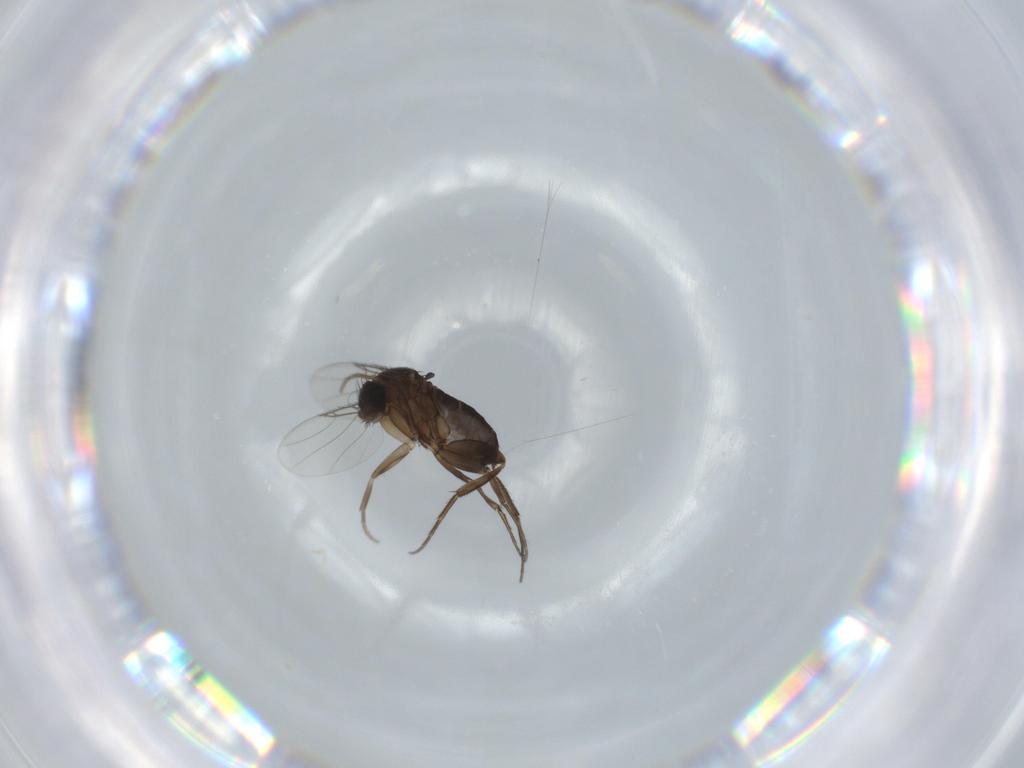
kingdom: Animalia
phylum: Arthropoda
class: Insecta
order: Diptera
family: Phoridae
